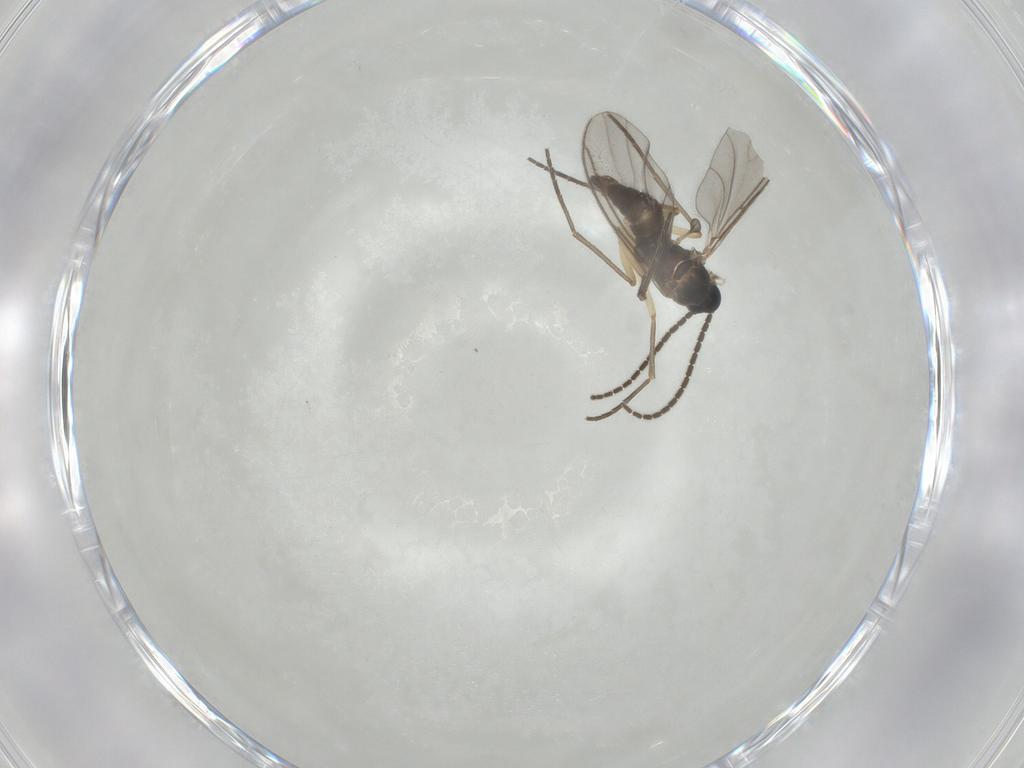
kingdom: Animalia
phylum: Arthropoda
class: Insecta
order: Diptera
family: Sciaridae
